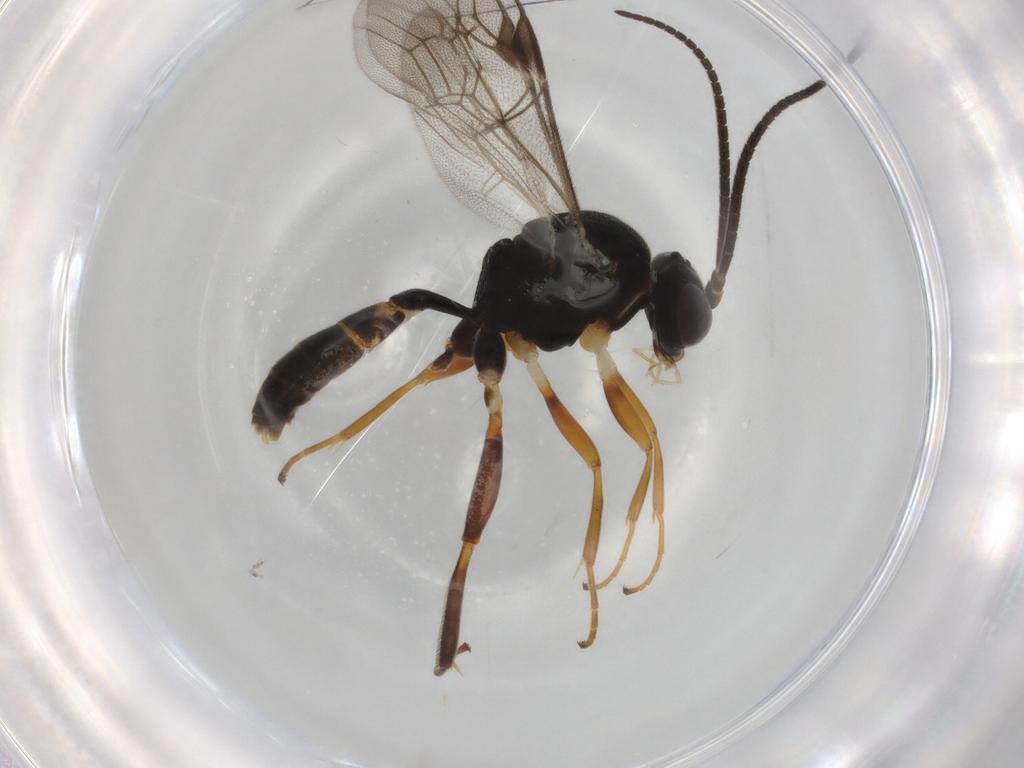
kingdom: Animalia
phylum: Arthropoda
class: Insecta
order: Hymenoptera
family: Ichneumonidae
